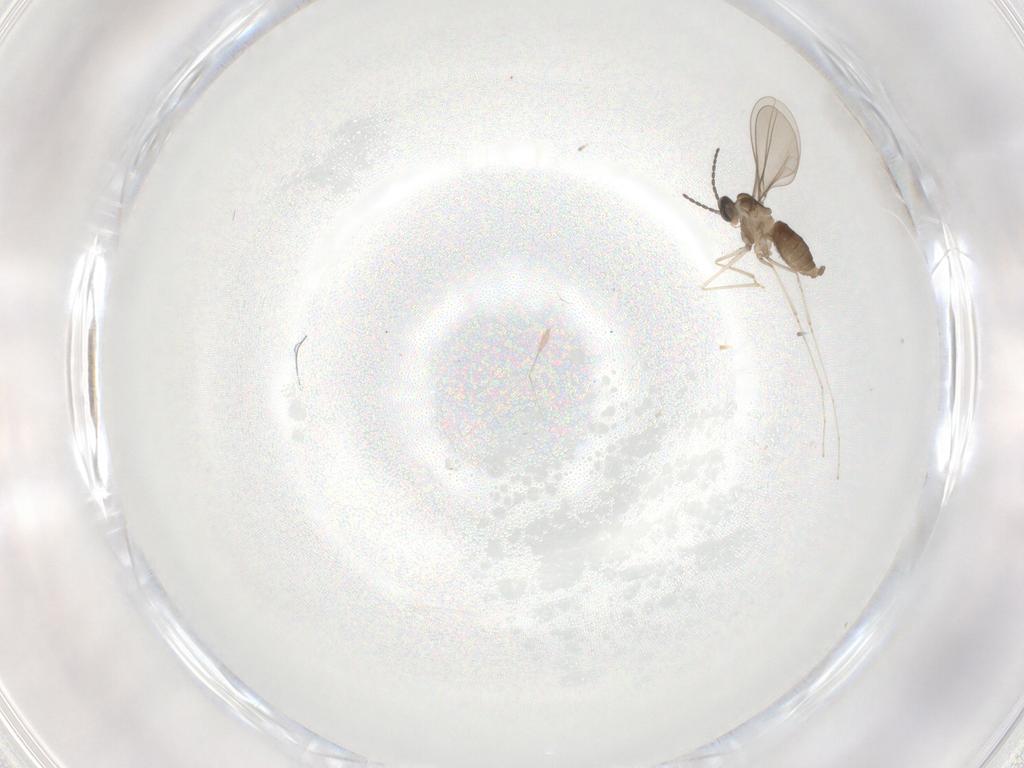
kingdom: Animalia
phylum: Arthropoda
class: Insecta
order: Diptera
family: Cecidomyiidae
